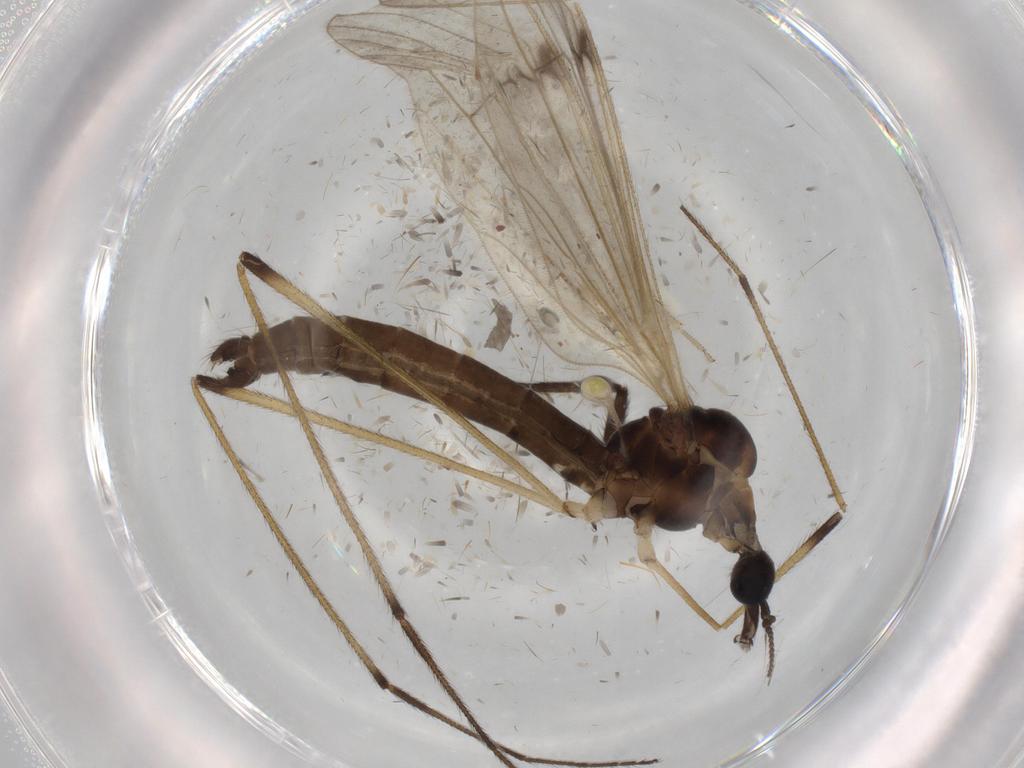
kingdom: Animalia
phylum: Arthropoda
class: Insecta
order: Diptera
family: Limoniidae
